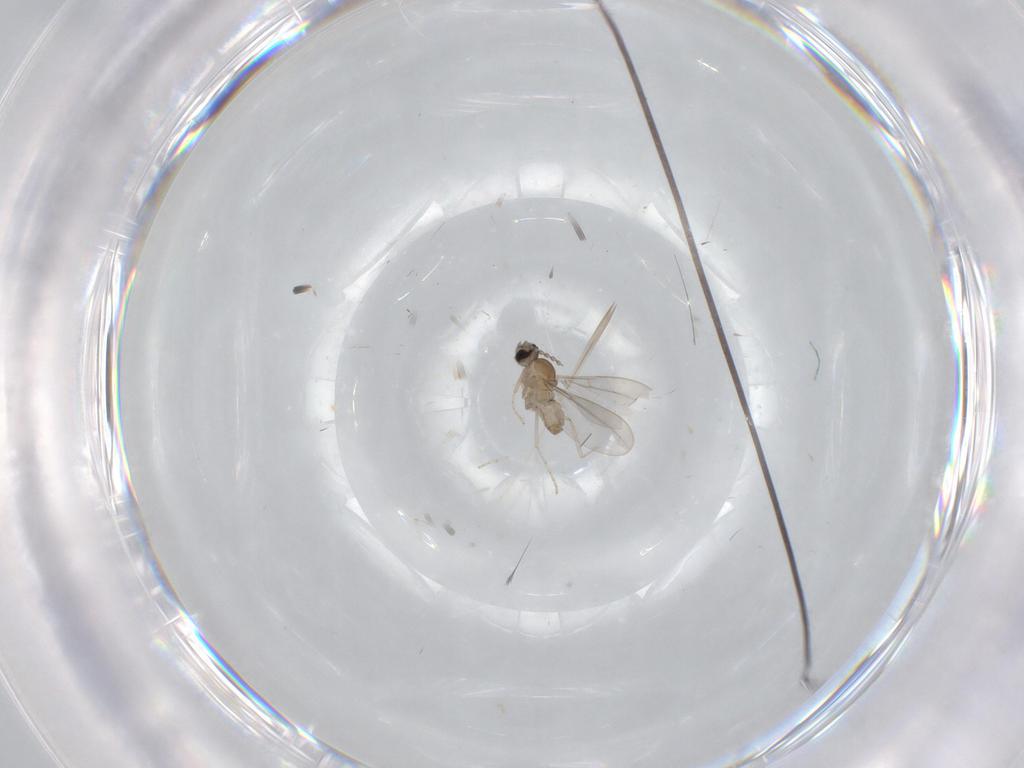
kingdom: Animalia
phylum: Arthropoda
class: Insecta
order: Diptera
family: Cecidomyiidae
